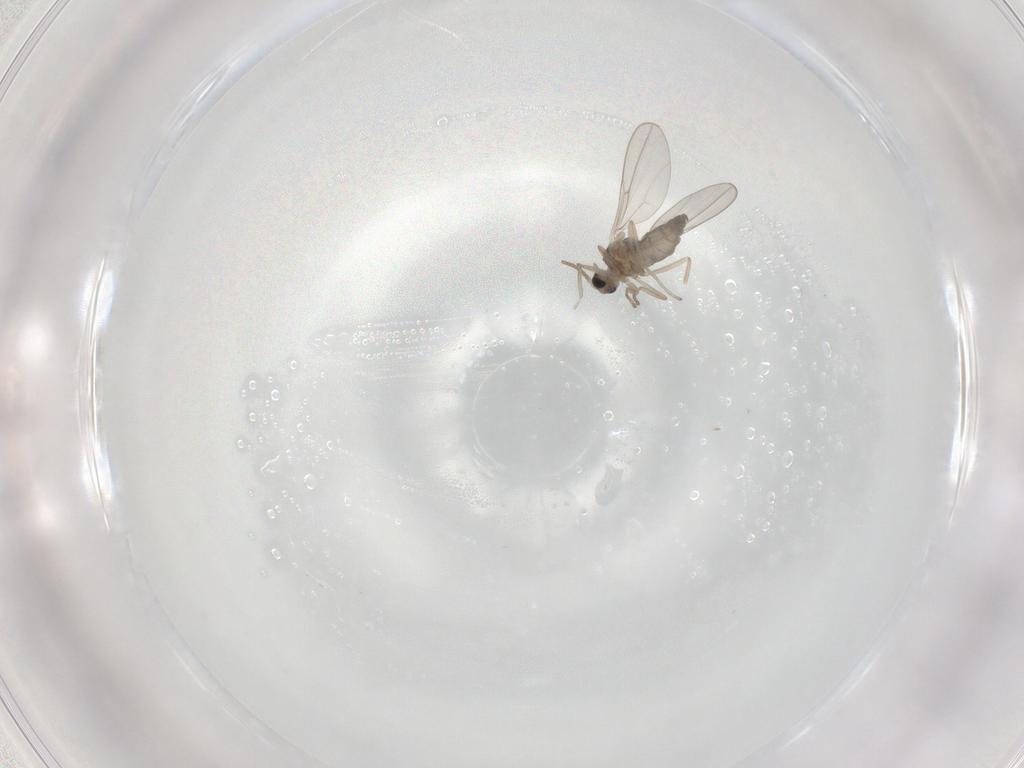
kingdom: Animalia
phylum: Arthropoda
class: Insecta
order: Diptera
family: Cecidomyiidae
